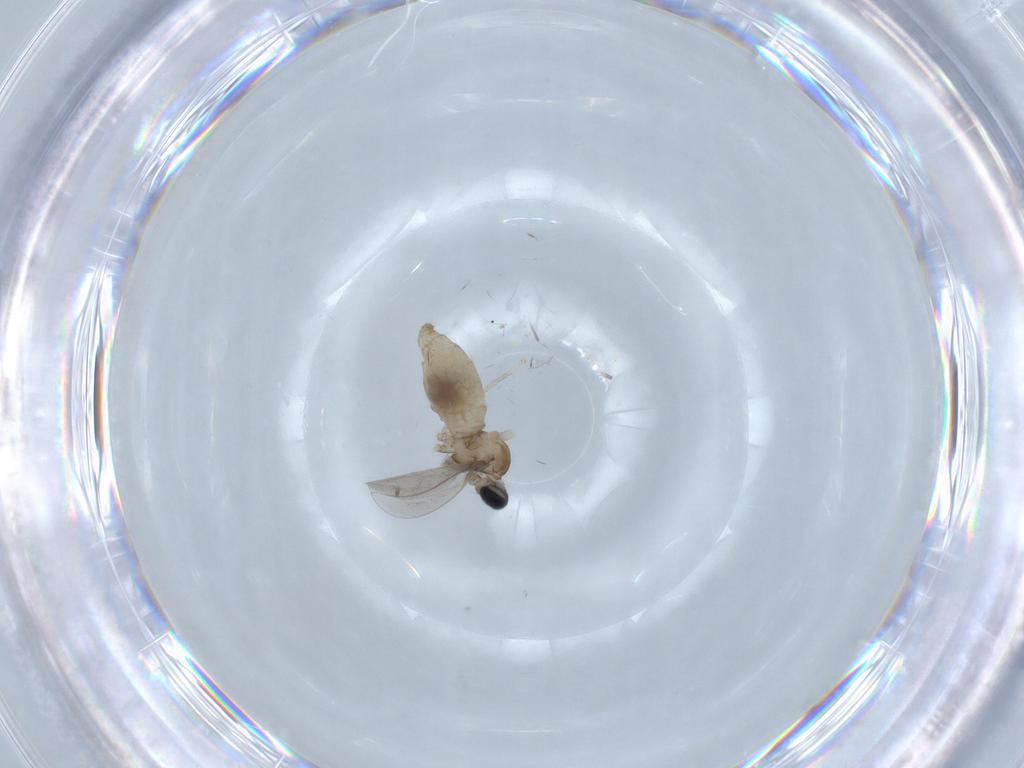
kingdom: Animalia
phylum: Arthropoda
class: Insecta
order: Diptera
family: Cecidomyiidae
